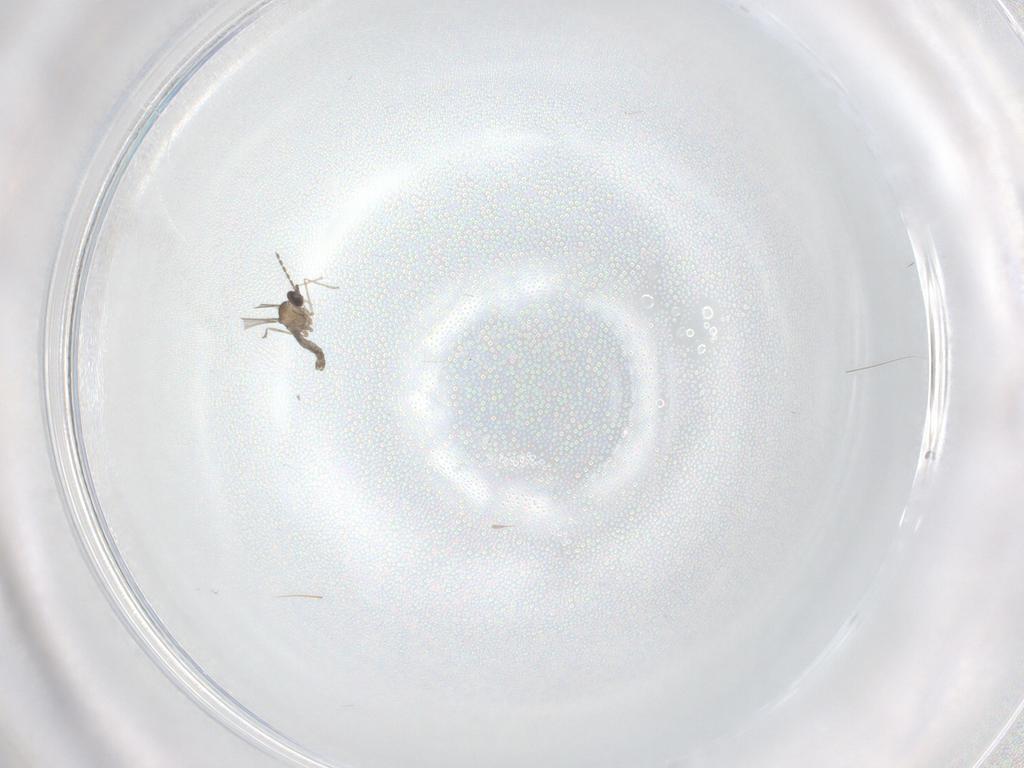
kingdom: Animalia
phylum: Arthropoda
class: Insecta
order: Diptera
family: Cecidomyiidae
